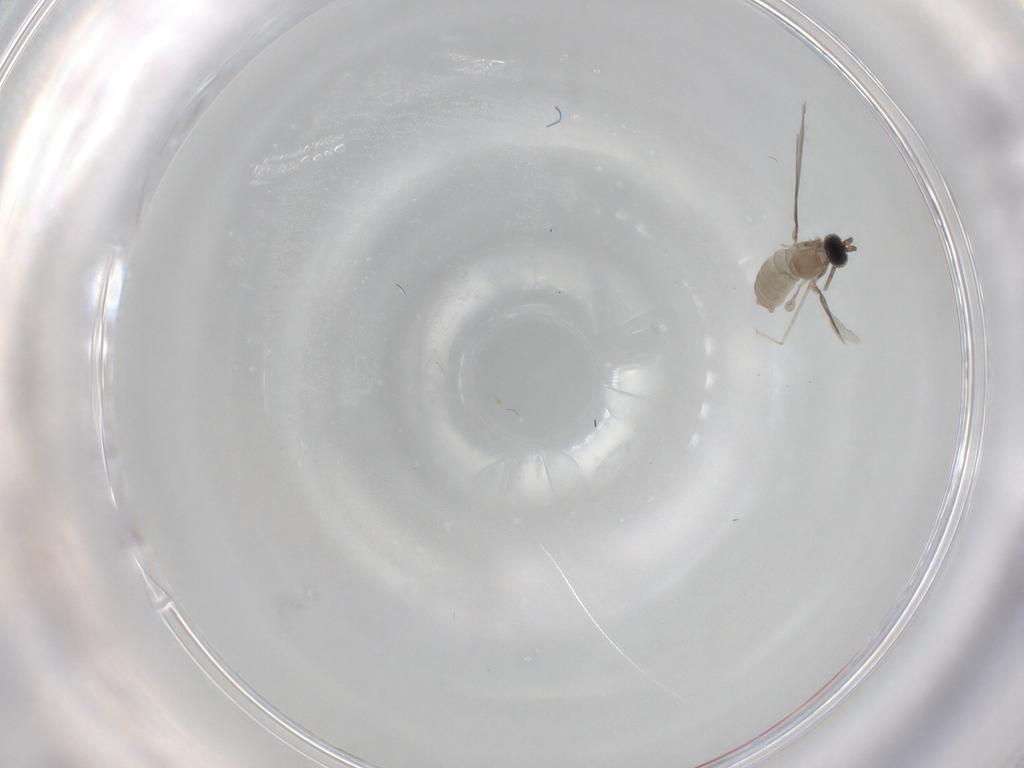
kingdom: Animalia
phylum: Arthropoda
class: Insecta
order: Diptera
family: Cecidomyiidae
